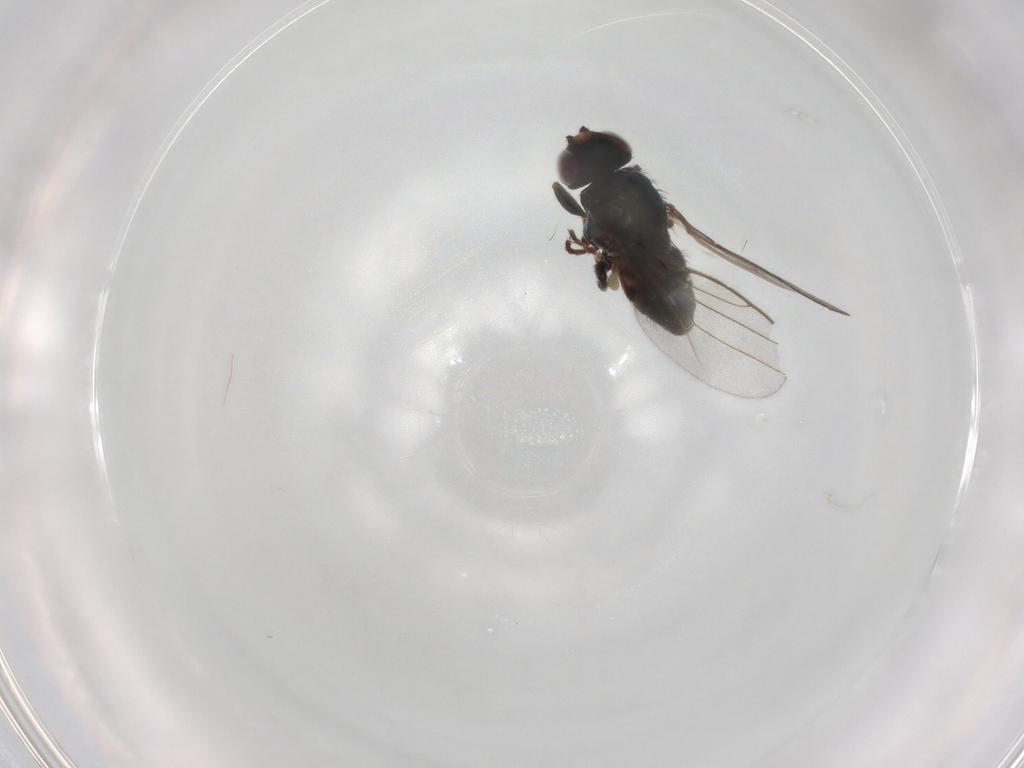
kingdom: Animalia
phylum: Arthropoda
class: Insecta
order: Diptera
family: Chloropidae
